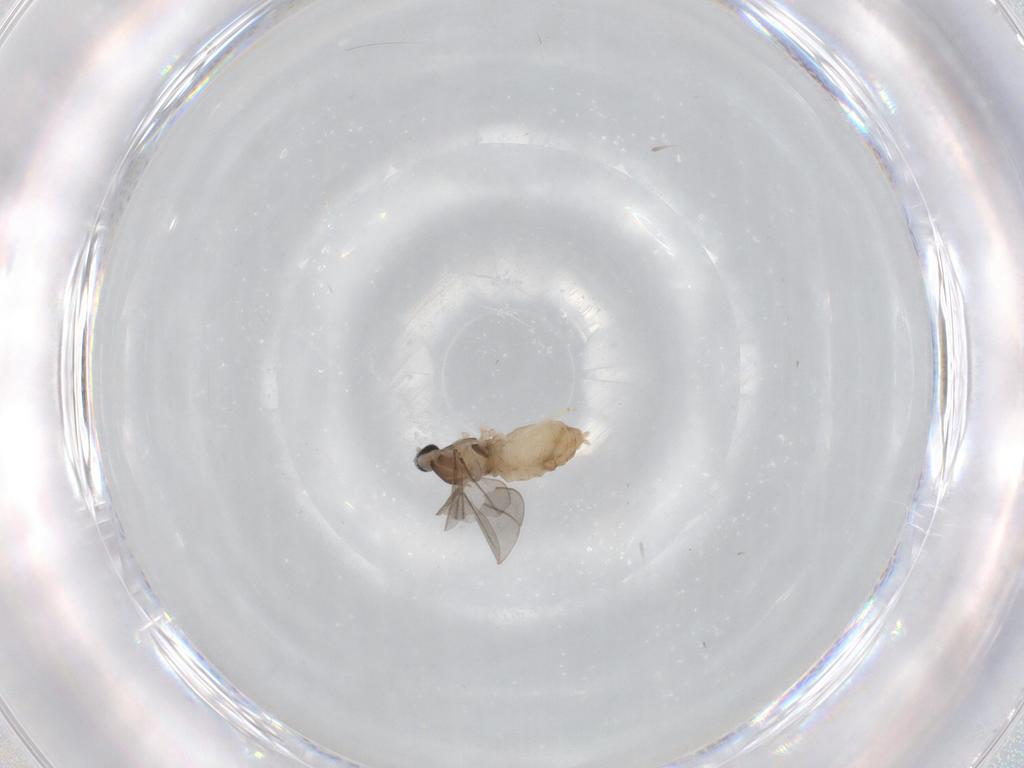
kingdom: Animalia
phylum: Arthropoda
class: Insecta
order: Diptera
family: Cecidomyiidae
